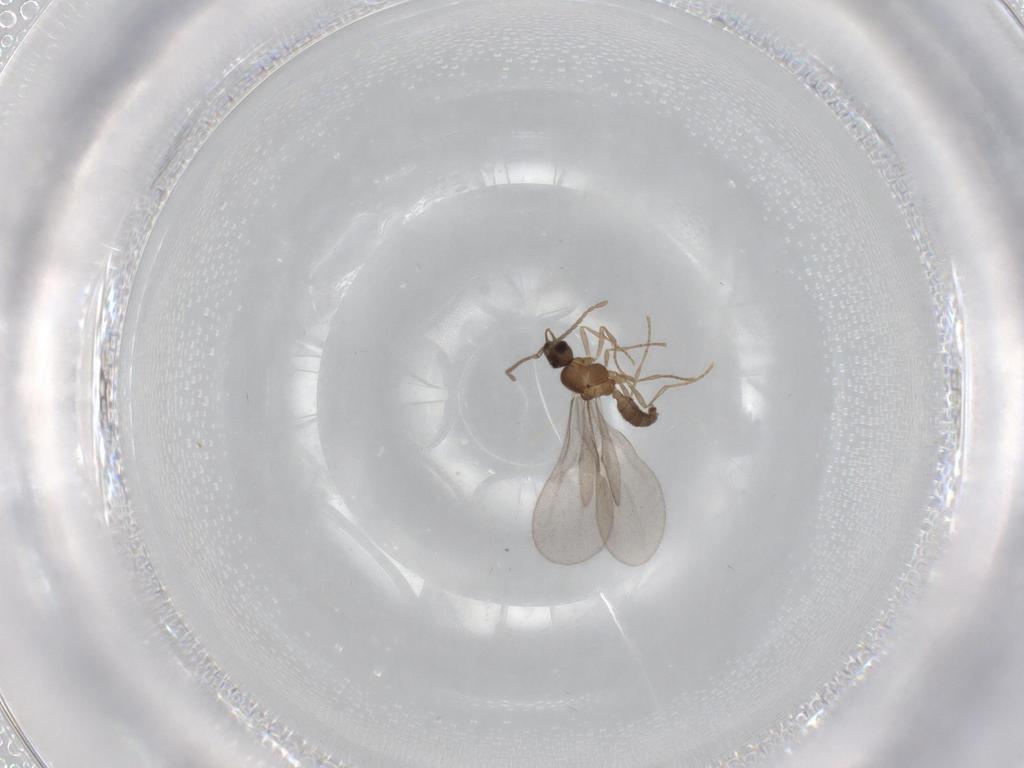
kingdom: Animalia
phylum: Arthropoda
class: Insecta
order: Hymenoptera
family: Formicidae
